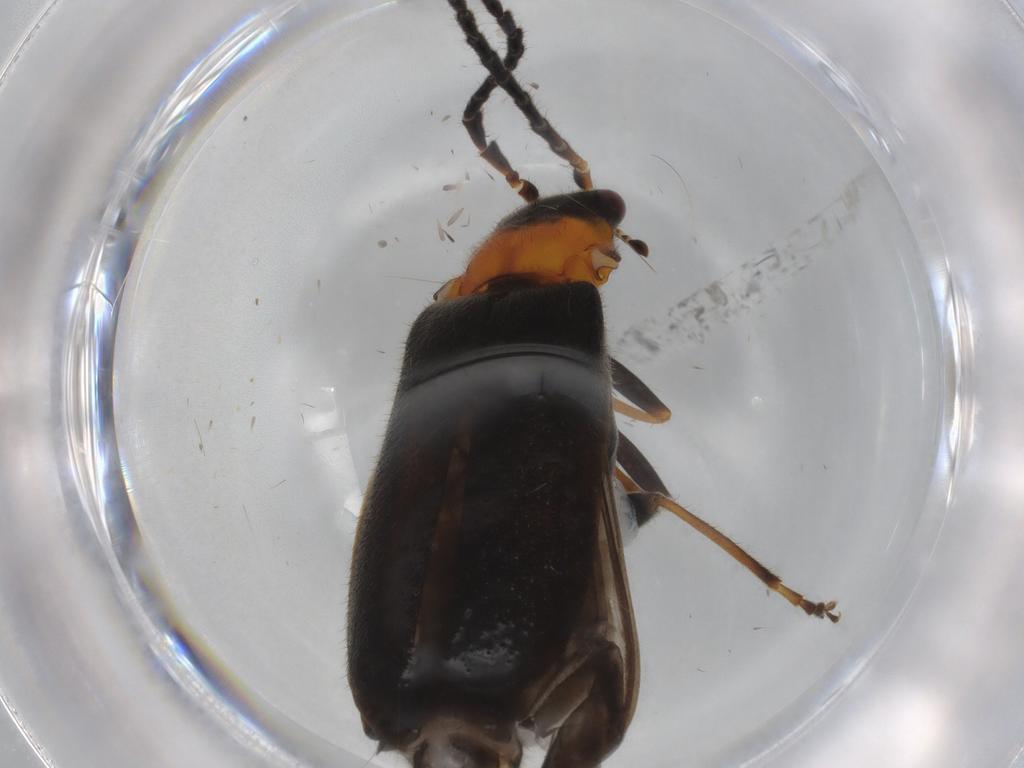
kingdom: Animalia
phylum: Arthropoda
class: Insecta
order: Coleoptera
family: Cantharidae
